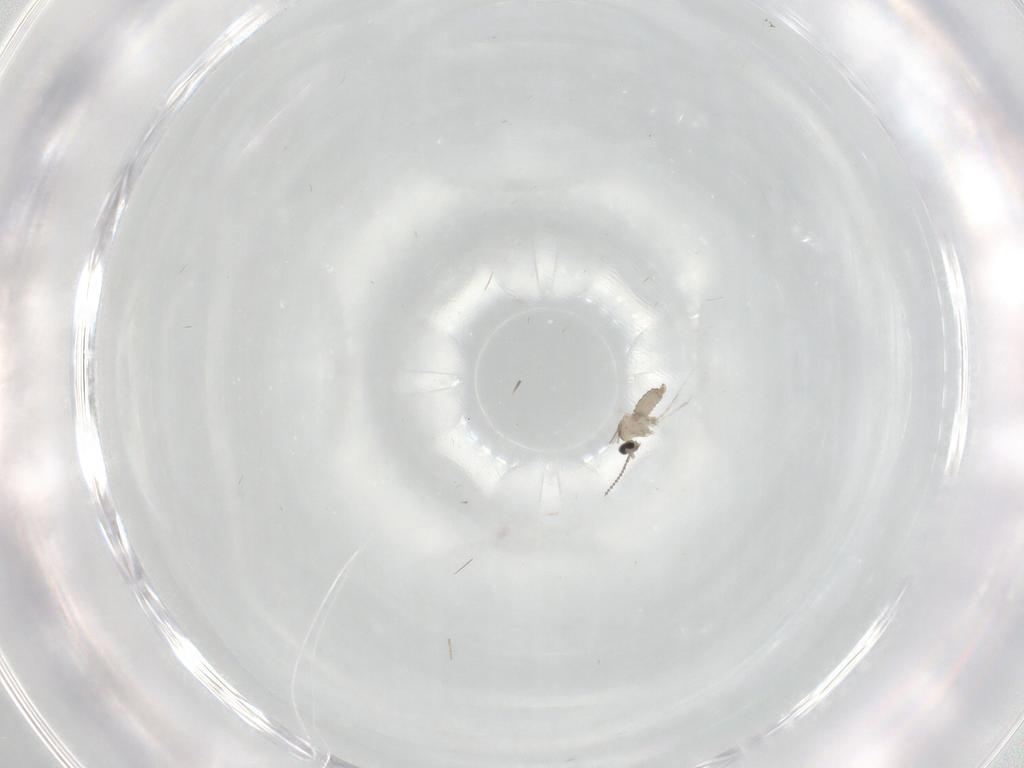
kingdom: Animalia
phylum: Arthropoda
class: Insecta
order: Diptera
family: Cecidomyiidae
